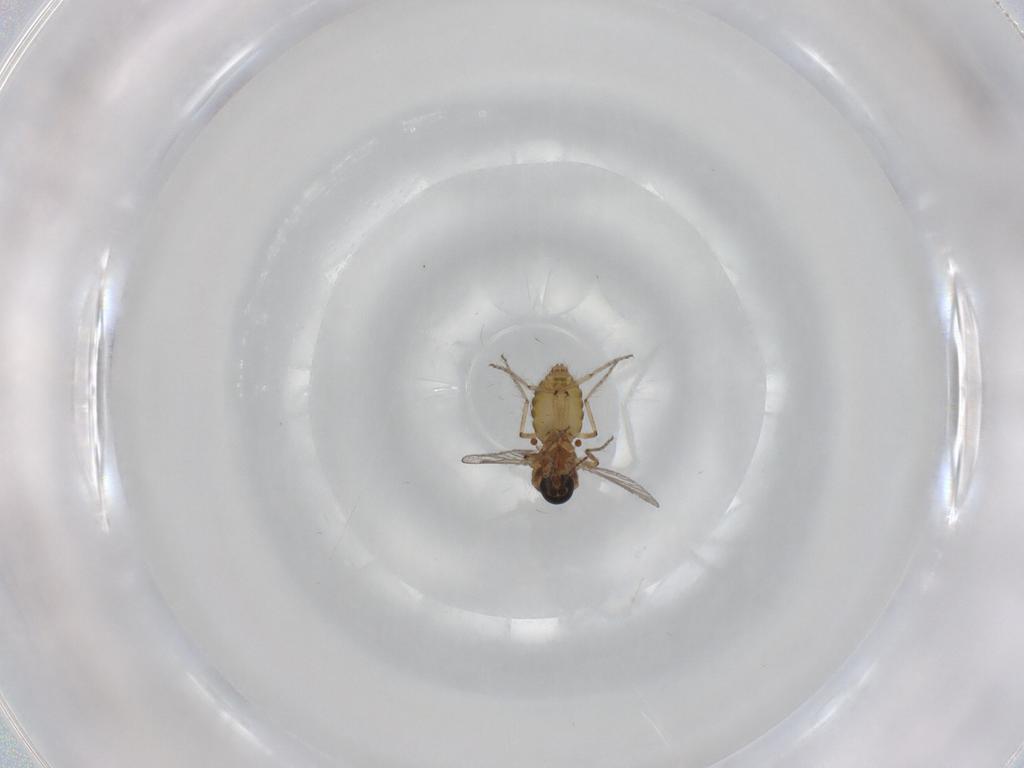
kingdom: Animalia
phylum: Arthropoda
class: Insecta
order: Diptera
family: Ceratopogonidae
